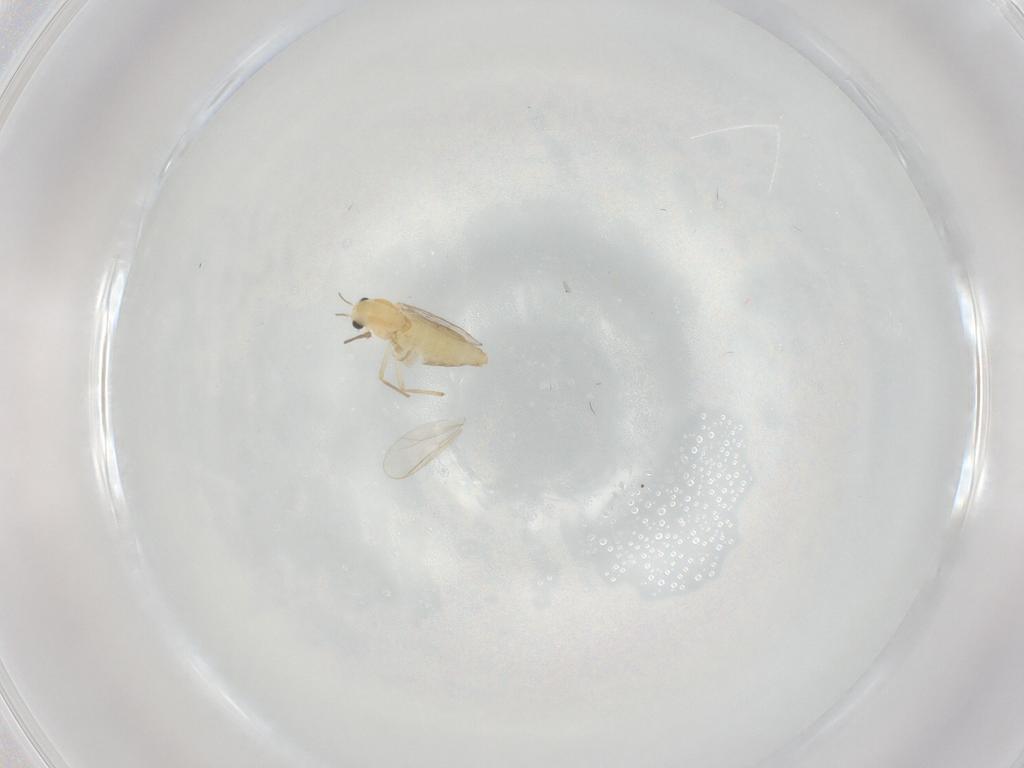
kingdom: Animalia
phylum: Arthropoda
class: Insecta
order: Diptera
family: Chironomidae
